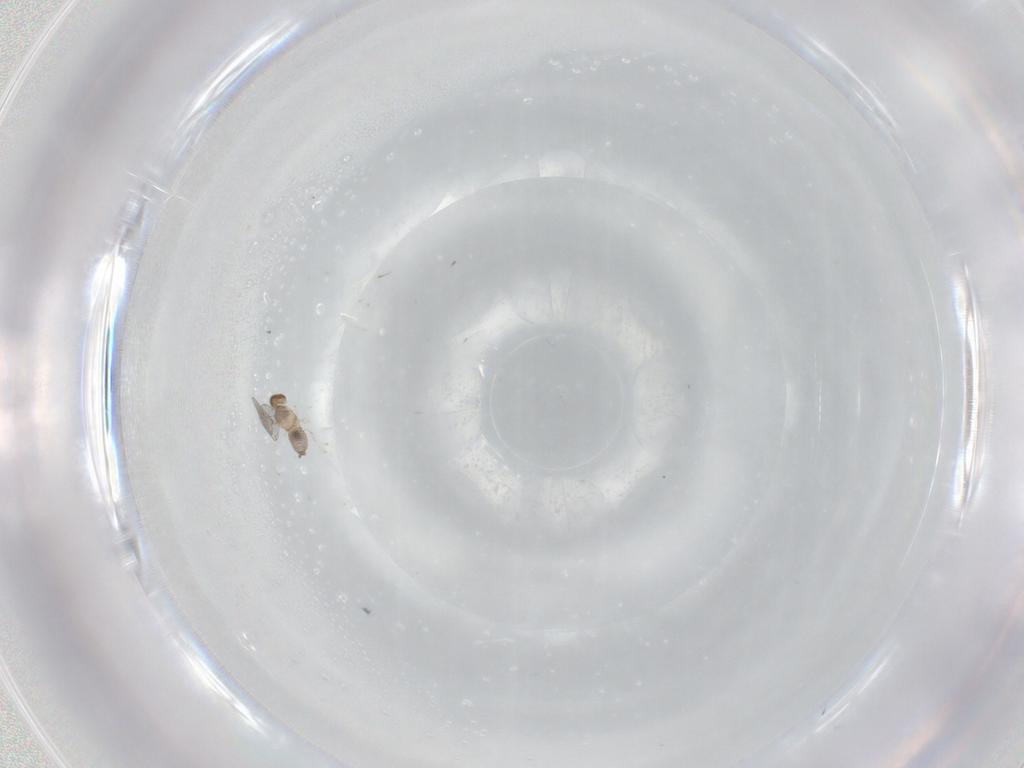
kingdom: Animalia
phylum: Arthropoda
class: Insecta
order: Diptera
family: Cecidomyiidae
